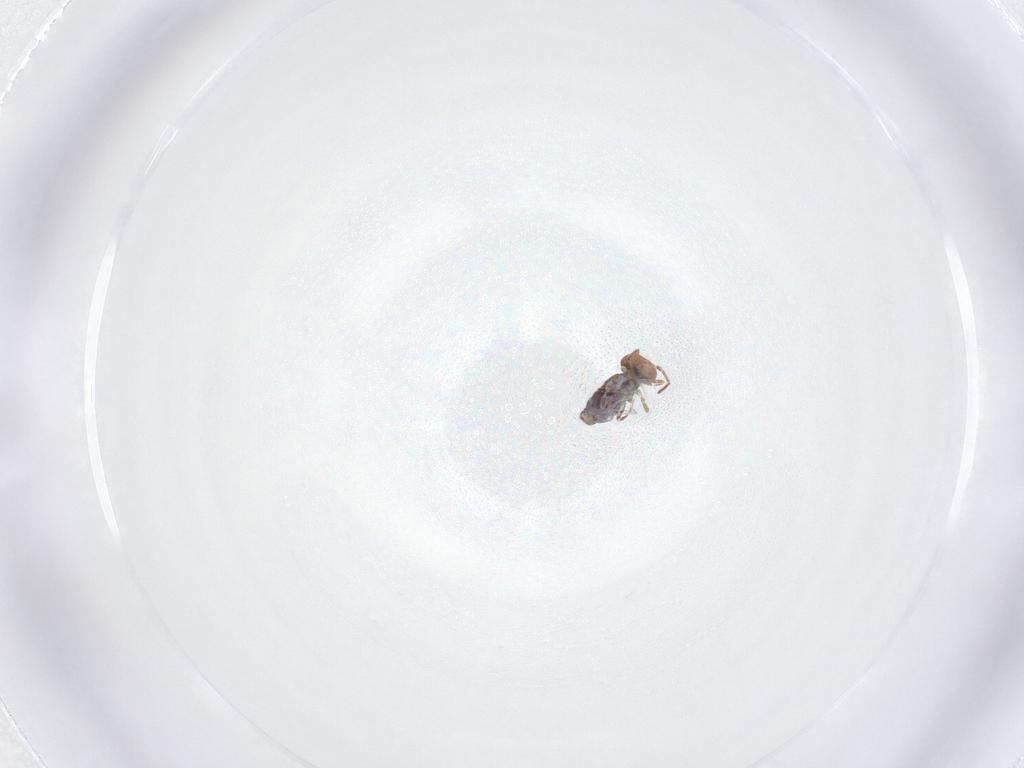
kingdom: Animalia
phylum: Arthropoda
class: Collembola
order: Symphypleona
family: Bourletiellidae
